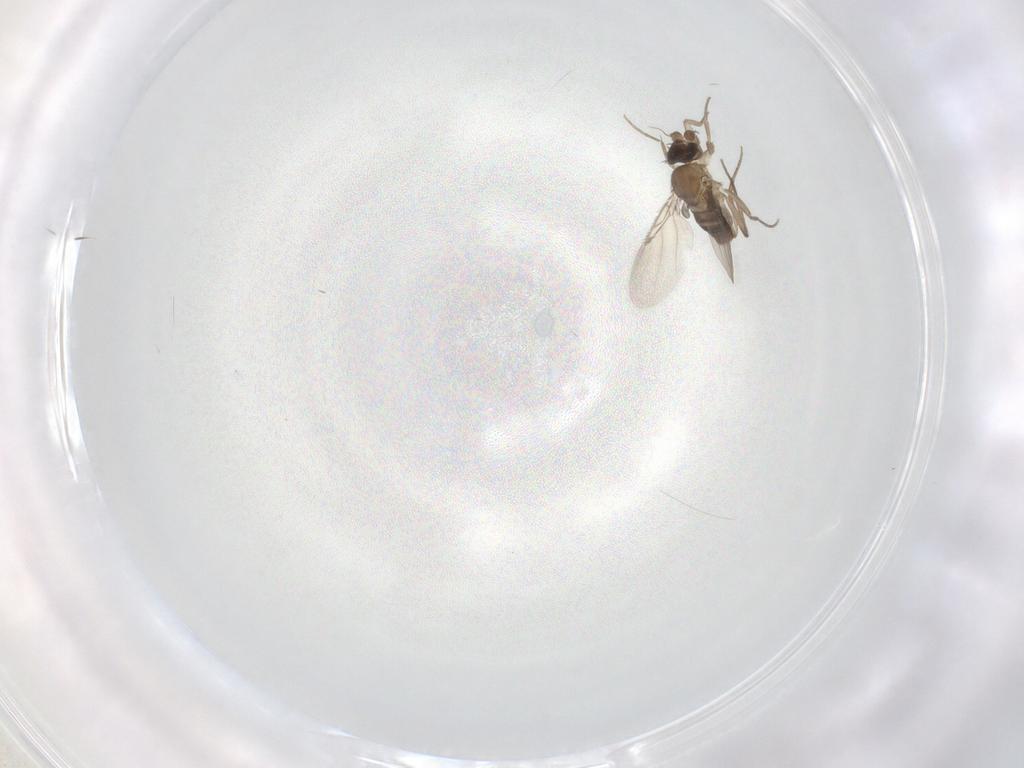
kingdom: Animalia
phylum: Arthropoda
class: Insecta
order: Diptera
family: Phoridae
